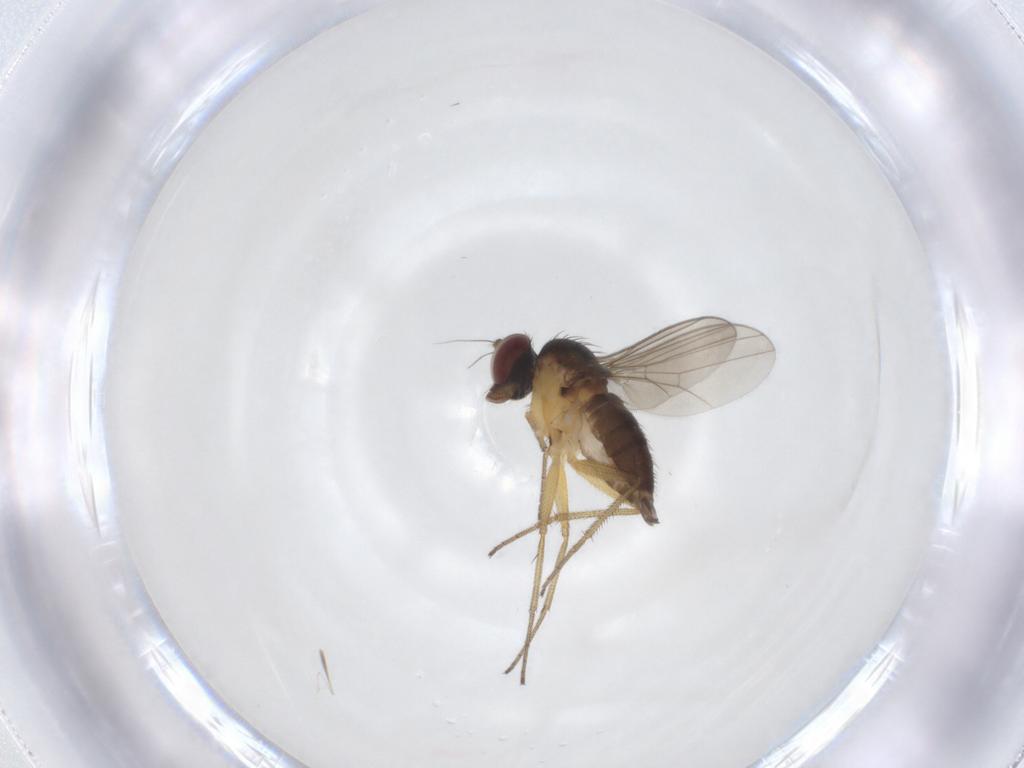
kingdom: Animalia
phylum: Arthropoda
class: Insecta
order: Diptera
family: Dolichopodidae
